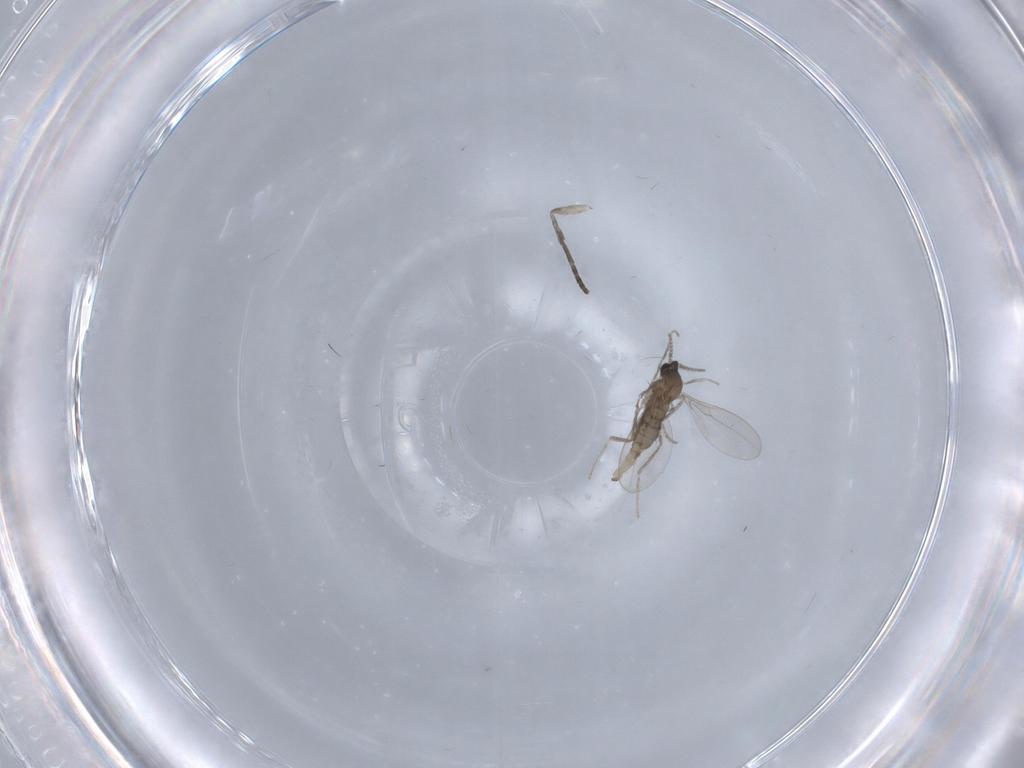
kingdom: Animalia
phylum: Arthropoda
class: Insecta
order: Diptera
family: Cecidomyiidae
